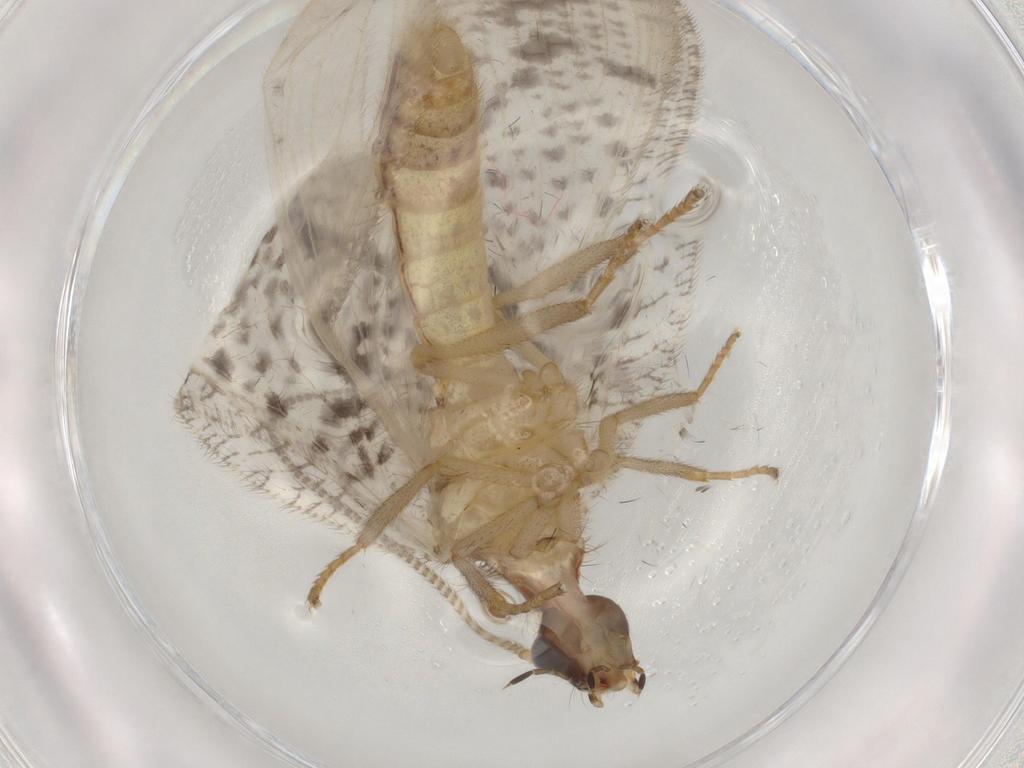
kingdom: Animalia
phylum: Arthropoda
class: Insecta
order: Neuroptera
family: Hemerobiidae
